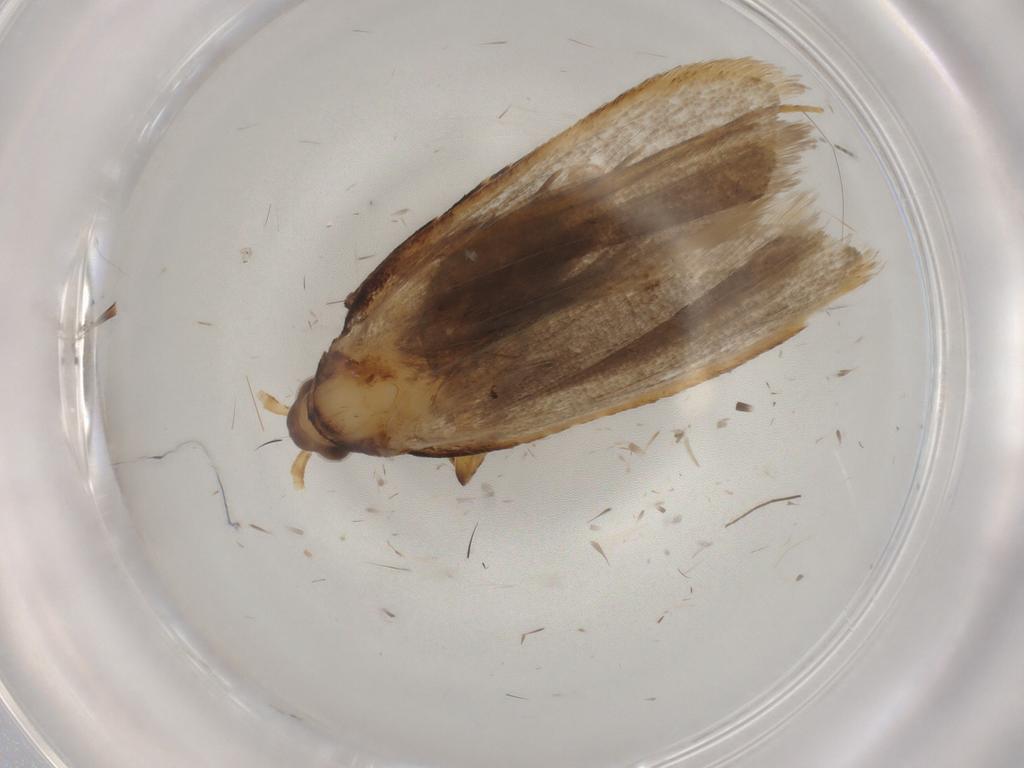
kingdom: Animalia
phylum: Arthropoda
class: Insecta
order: Lepidoptera
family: Lecithoceridae
